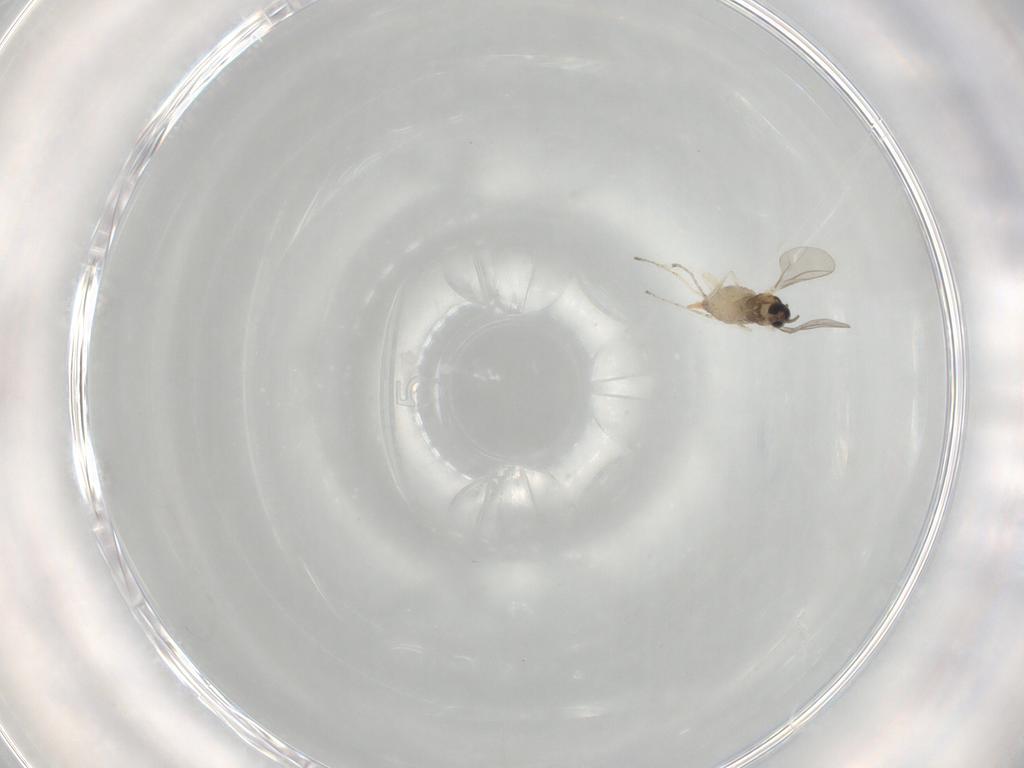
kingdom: Animalia
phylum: Arthropoda
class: Insecta
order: Diptera
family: Cecidomyiidae
